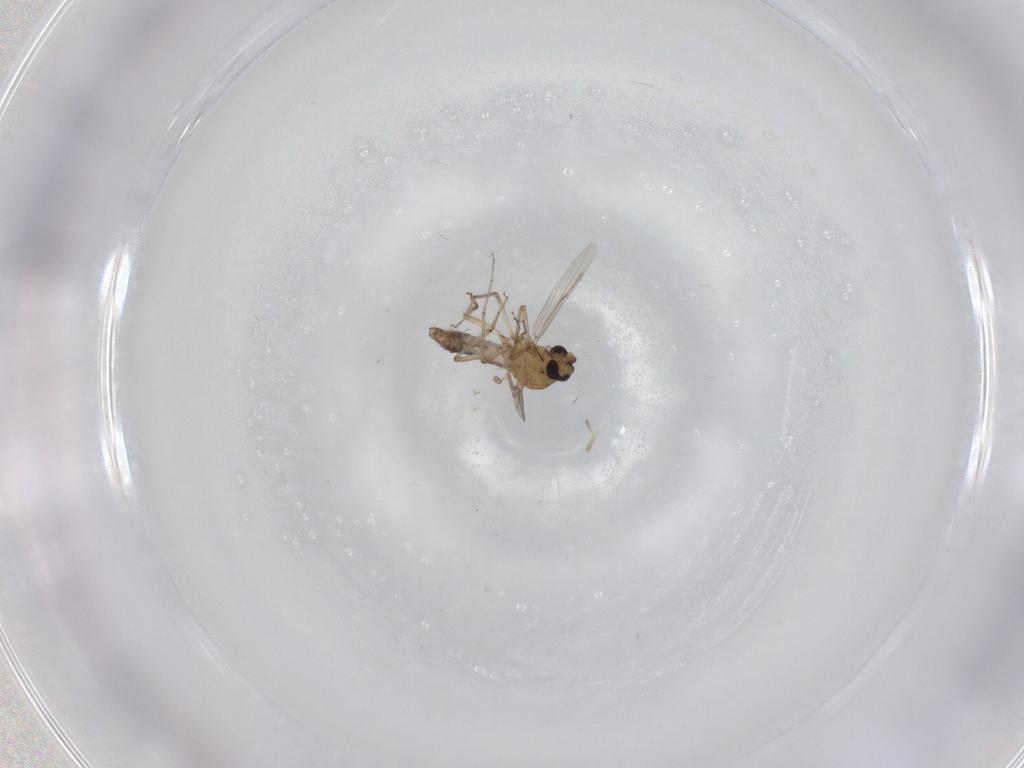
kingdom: Animalia
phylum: Arthropoda
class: Insecta
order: Diptera
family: Ceratopogonidae
